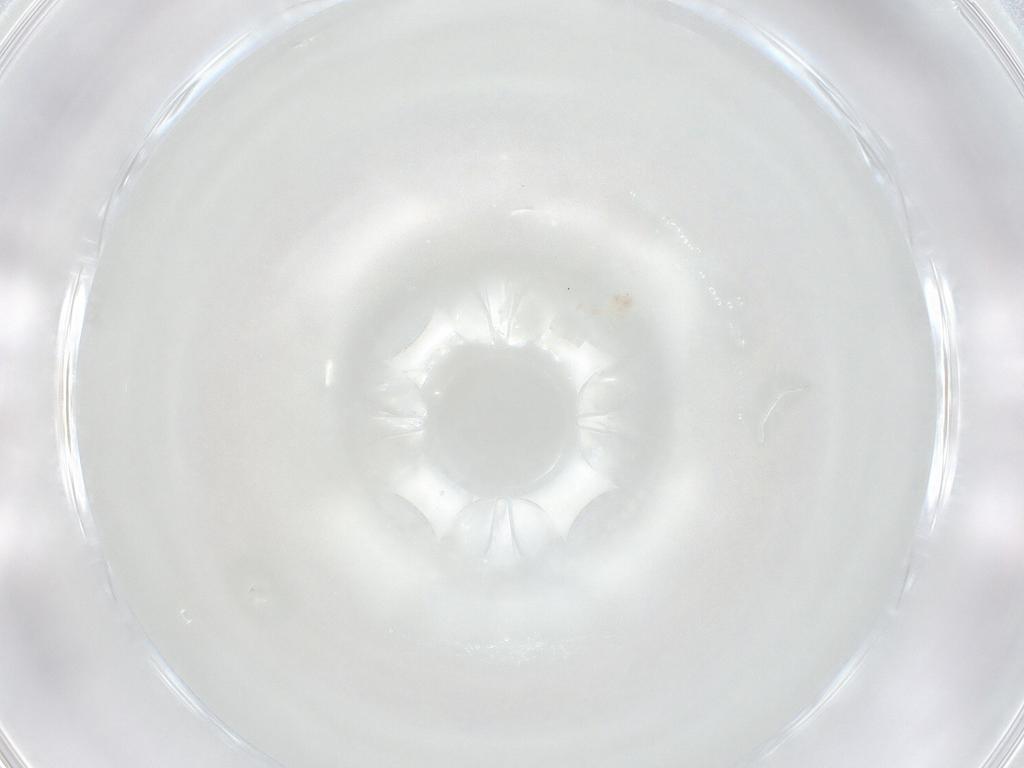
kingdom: Animalia
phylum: Arthropoda
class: Arachnida
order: Trombidiformes
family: Cunaxidae
